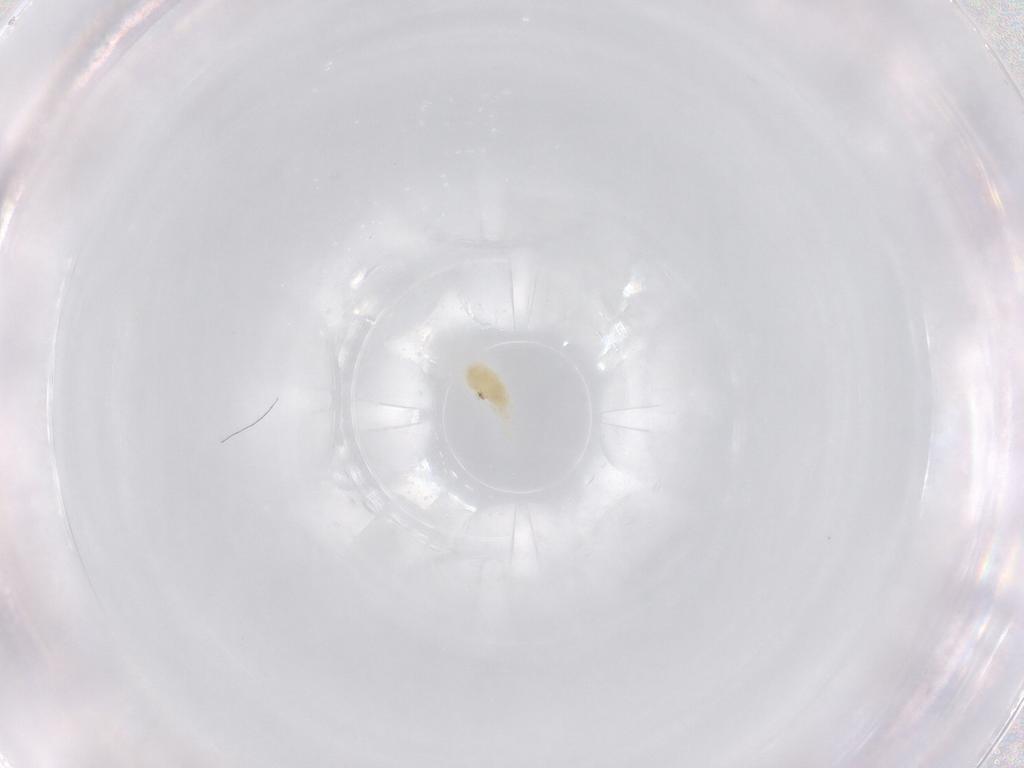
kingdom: Animalia
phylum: Arthropoda
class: Arachnida
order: Trombidiformes
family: Eupodidae
